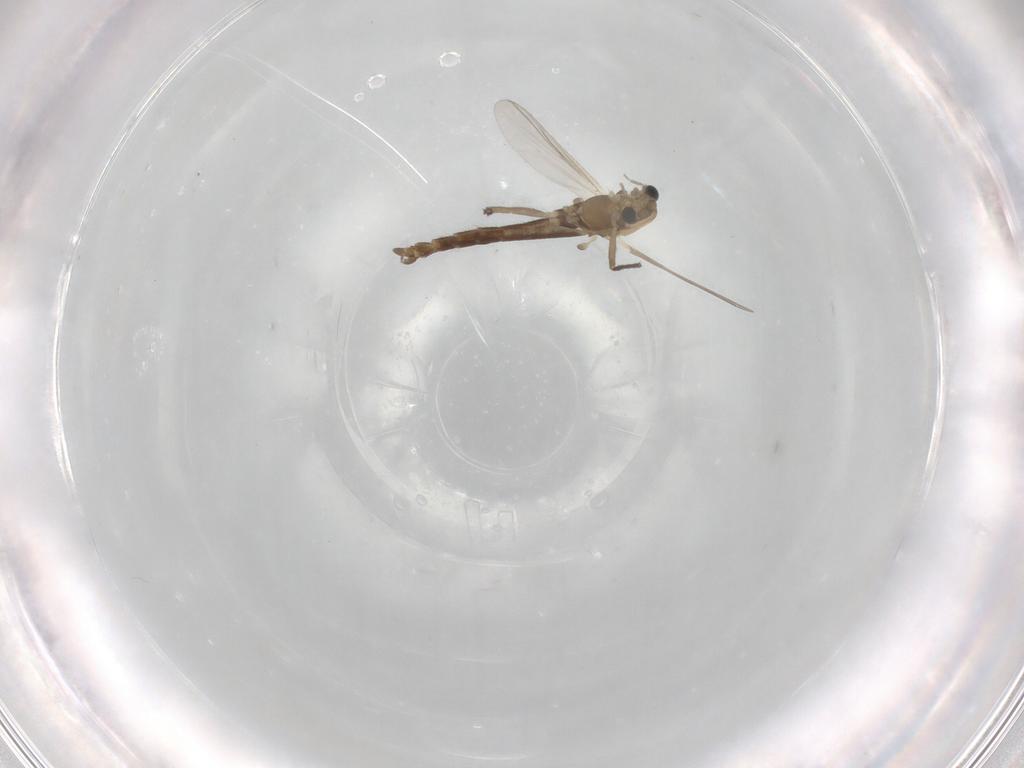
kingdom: Animalia
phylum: Arthropoda
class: Insecta
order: Diptera
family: Chironomidae
